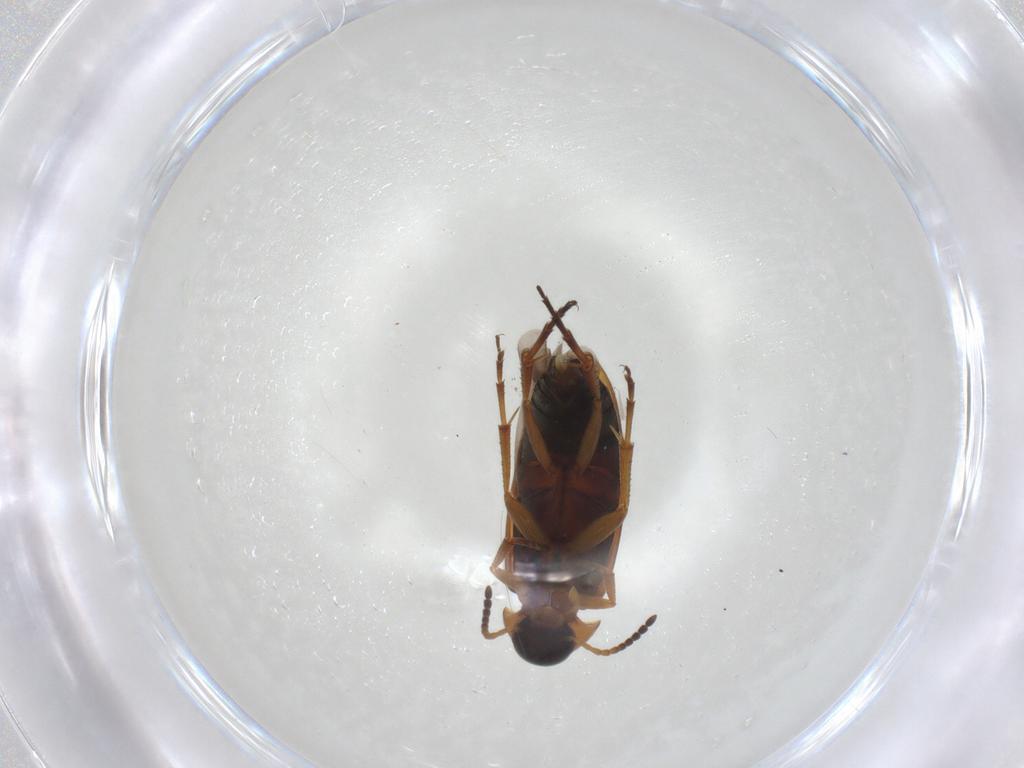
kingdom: Animalia
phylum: Arthropoda
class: Insecta
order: Coleoptera
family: Scraptiidae
